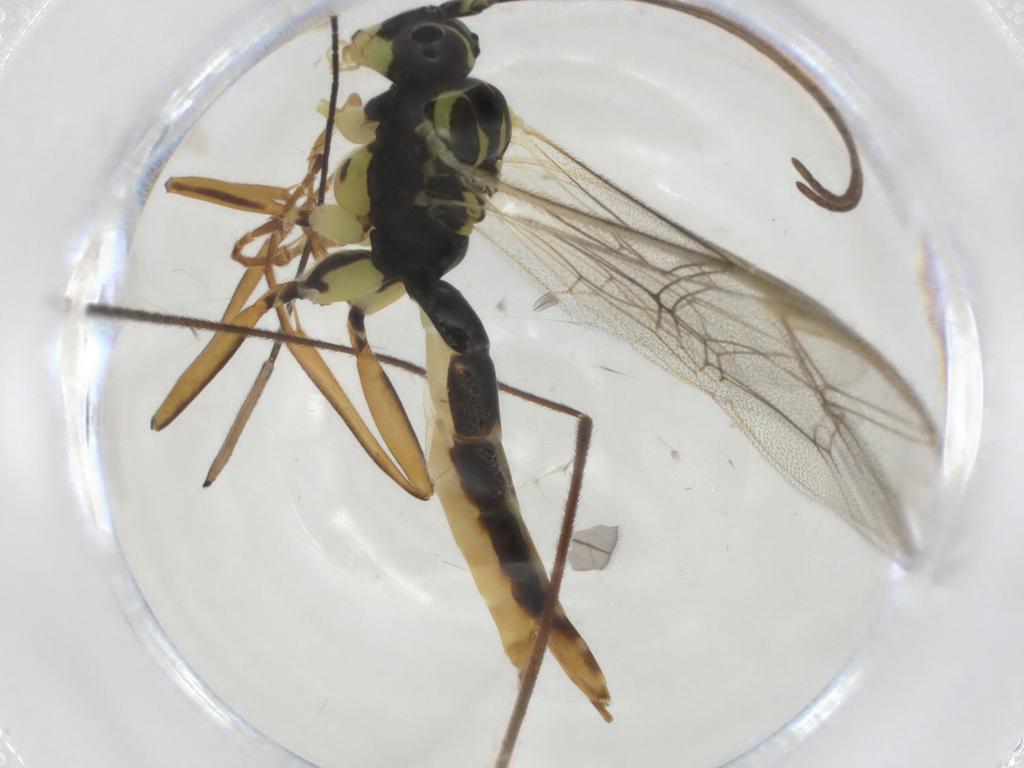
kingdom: Animalia
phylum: Arthropoda
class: Insecta
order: Hymenoptera
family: Ichneumonidae
